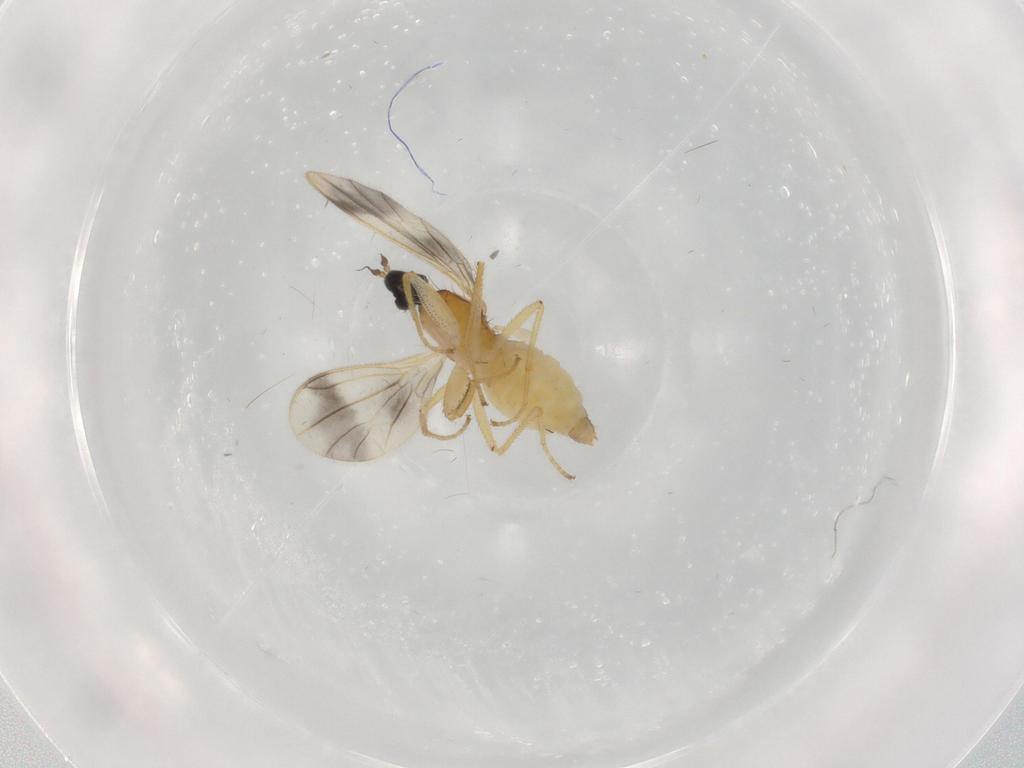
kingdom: Animalia
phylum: Arthropoda
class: Insecta
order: Diptera
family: Empididae
